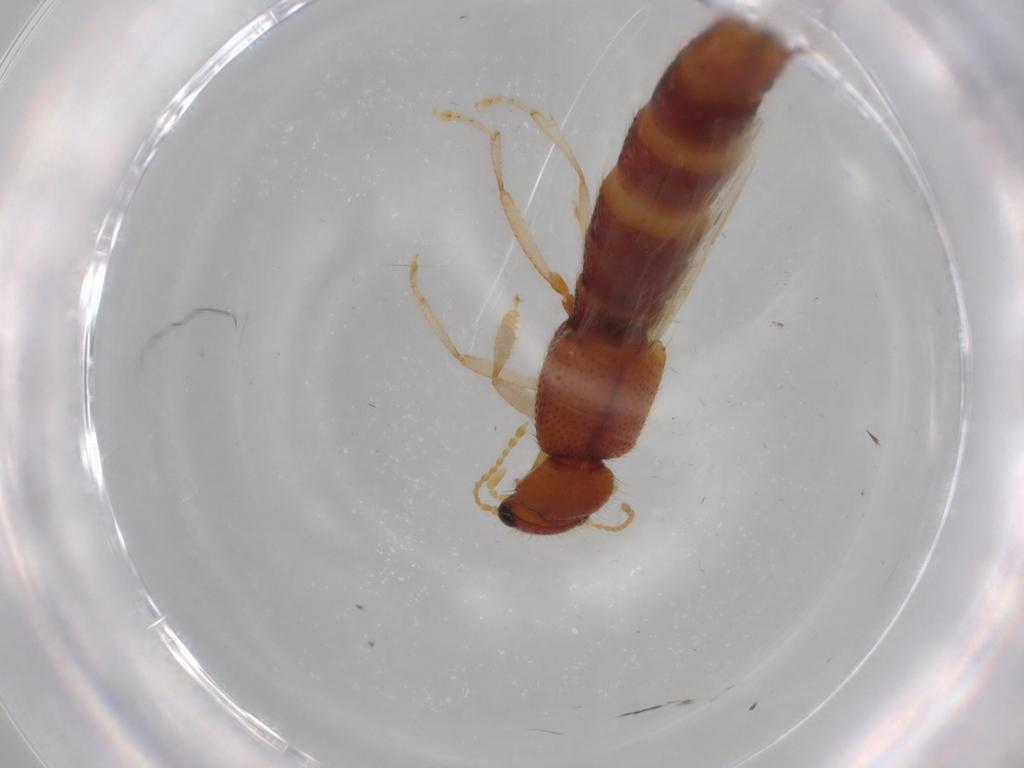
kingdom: Animalia
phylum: Arthropoda
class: Insecta
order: Coleoptera
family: Staphylinidae
